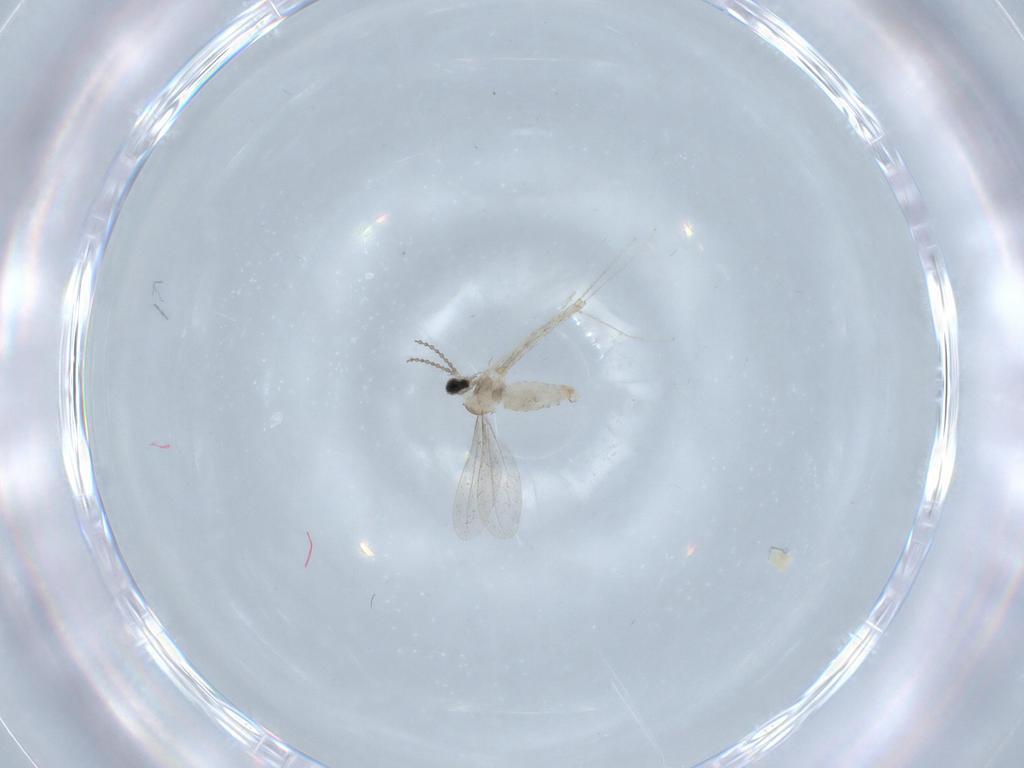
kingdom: Animalia
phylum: Arthropoda
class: Insecta
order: Diptera
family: Cecidomyiidae
